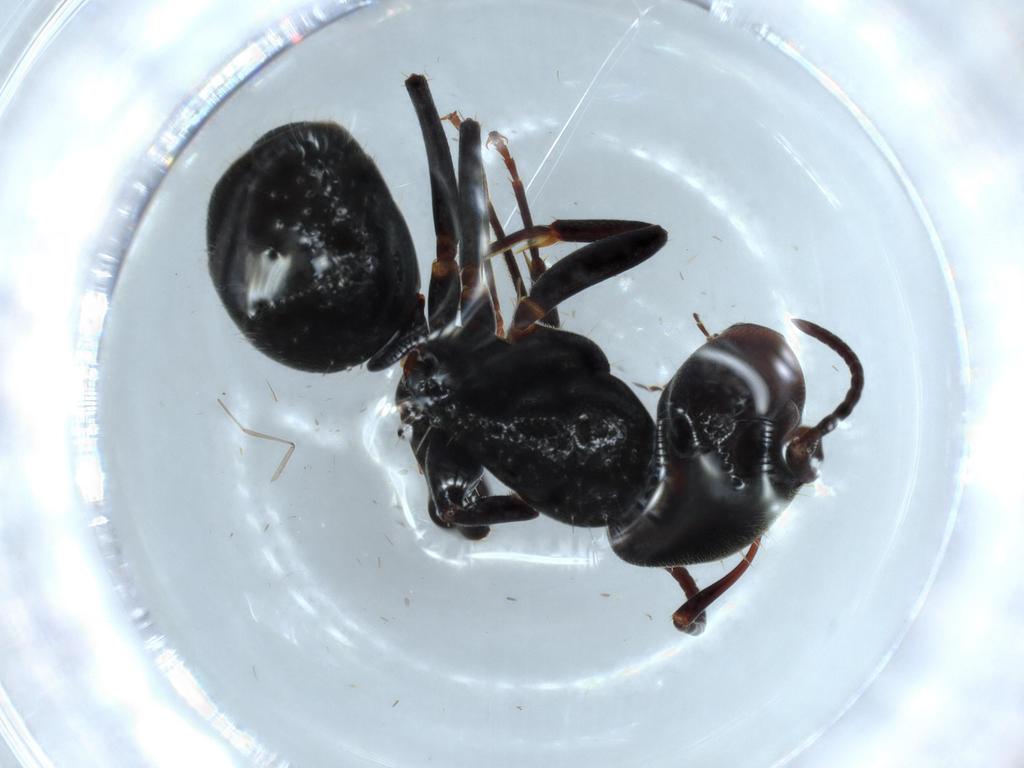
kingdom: Animalia
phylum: Arthropoda
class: Insecta
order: Hymenoptera
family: Formicidae
